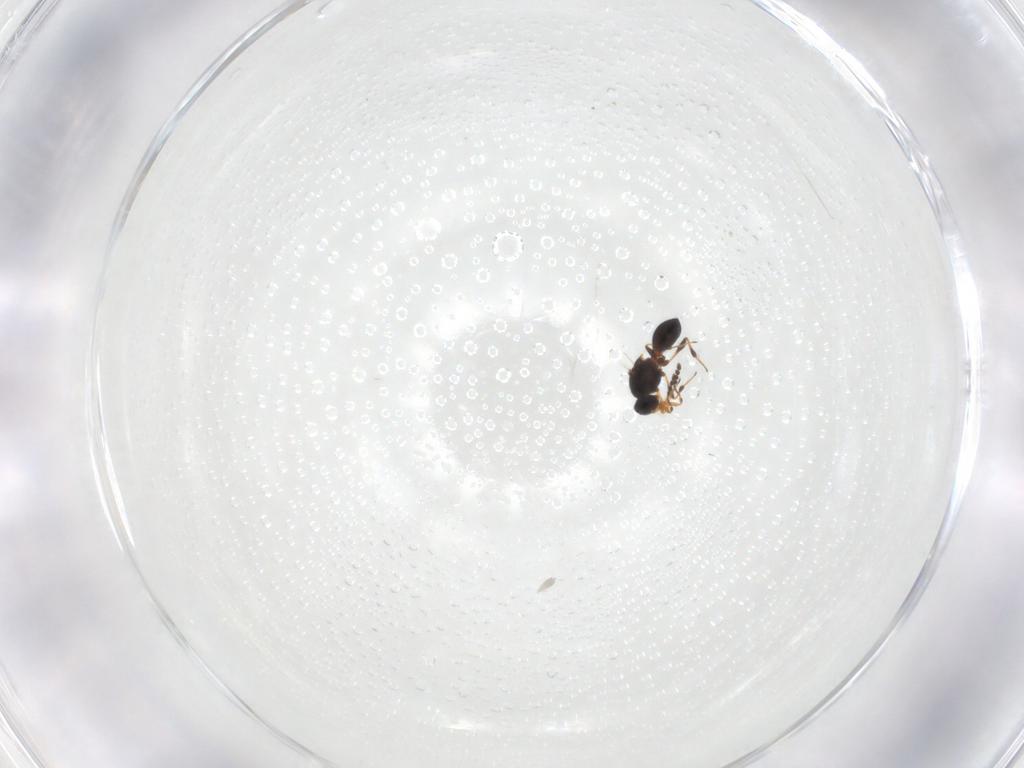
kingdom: Animalia
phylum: Arthropoda
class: Insecta
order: Hymenoptera
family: Platygastridae
